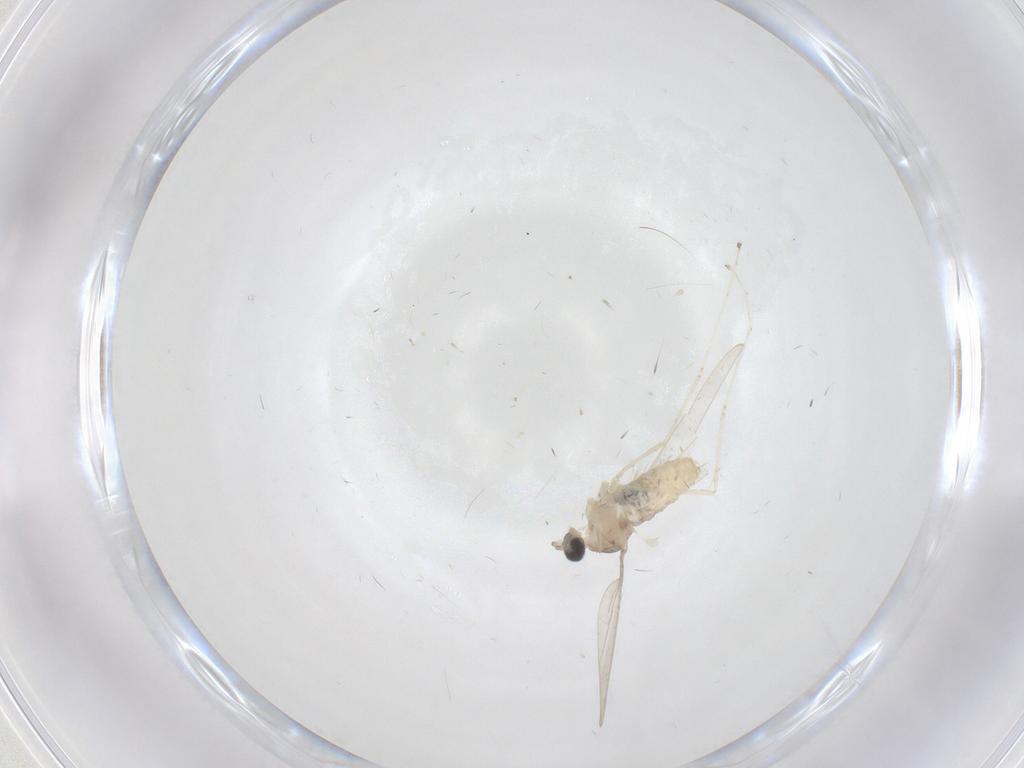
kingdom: Animalia
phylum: Arthropoda
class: Insecta
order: Diptera
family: Cecidomyiidae
